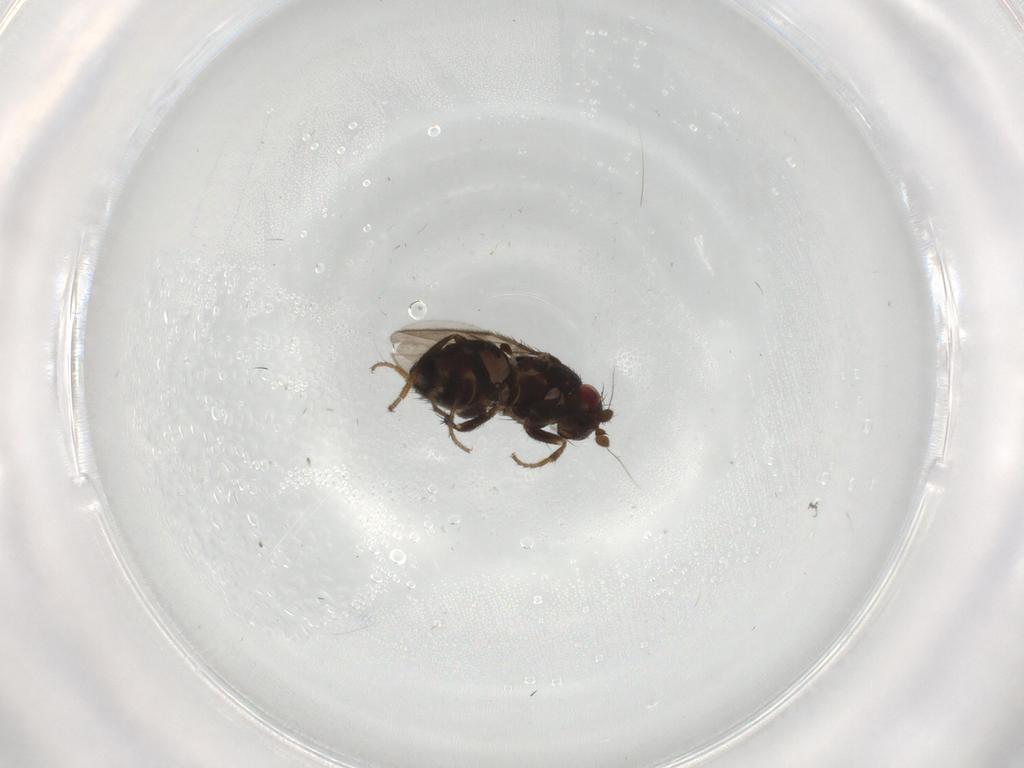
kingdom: Animalia
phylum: Arthropoda
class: Insecta
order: Diptera
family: Sphaeroceridae
